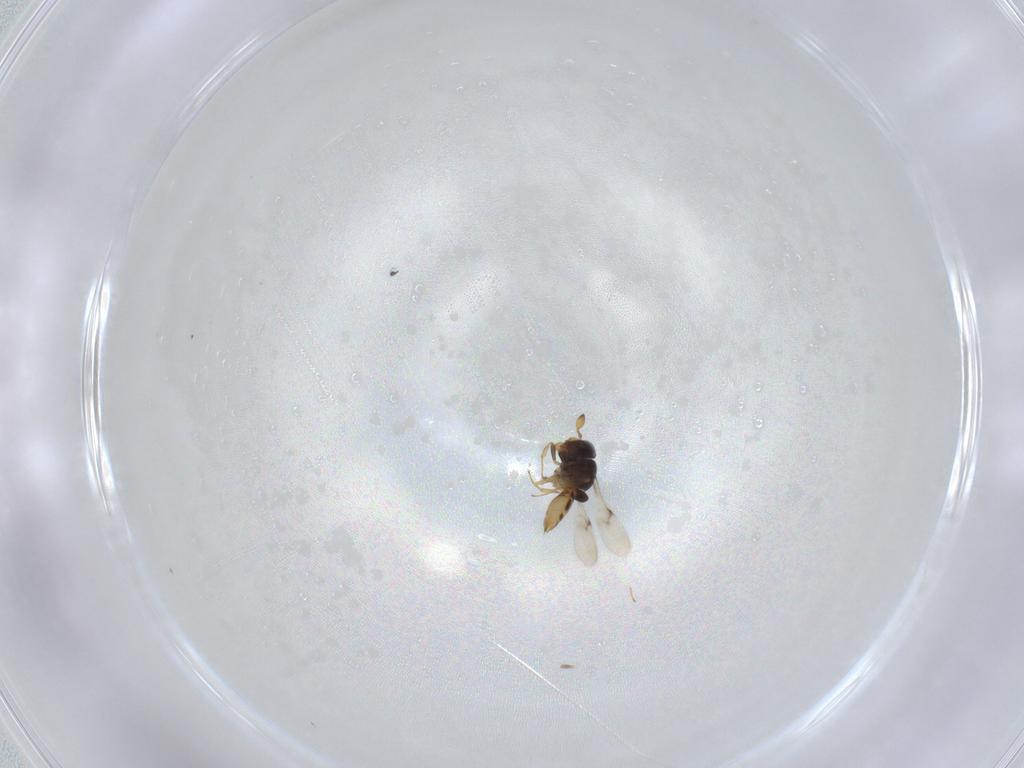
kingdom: Animalia
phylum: Arthropoda
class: Insecta
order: Hymenoptera
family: Scelionidae
